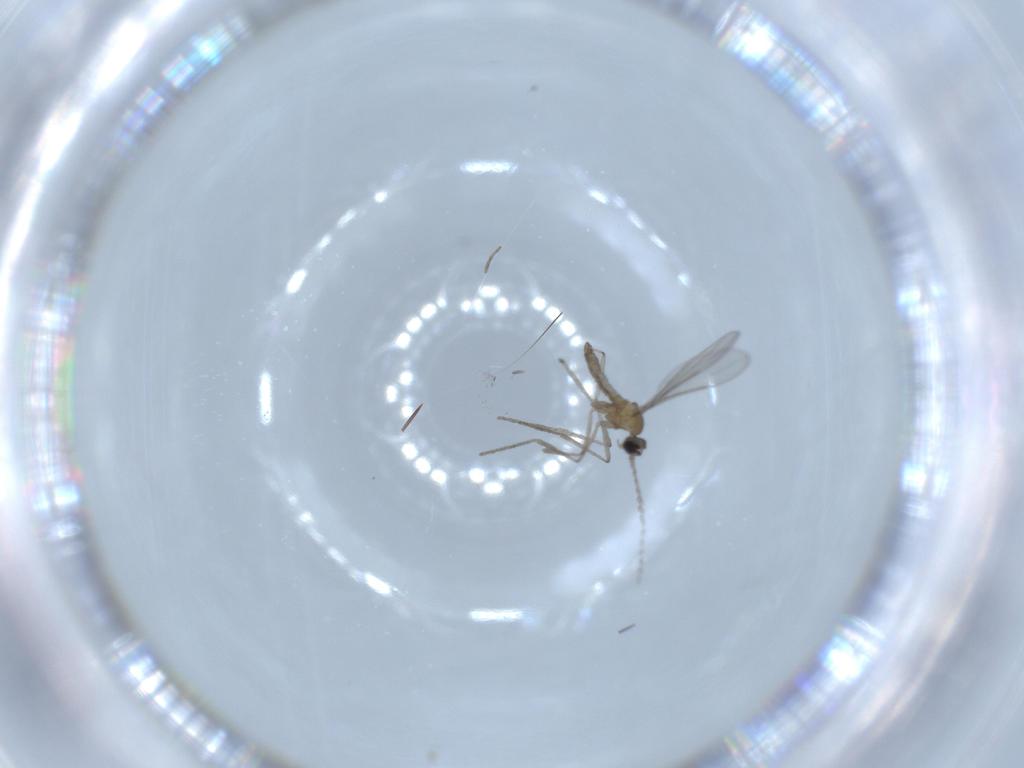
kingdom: Animalia
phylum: Arthropoda
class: Insecta
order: Diptera
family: Cecidomyiidae
